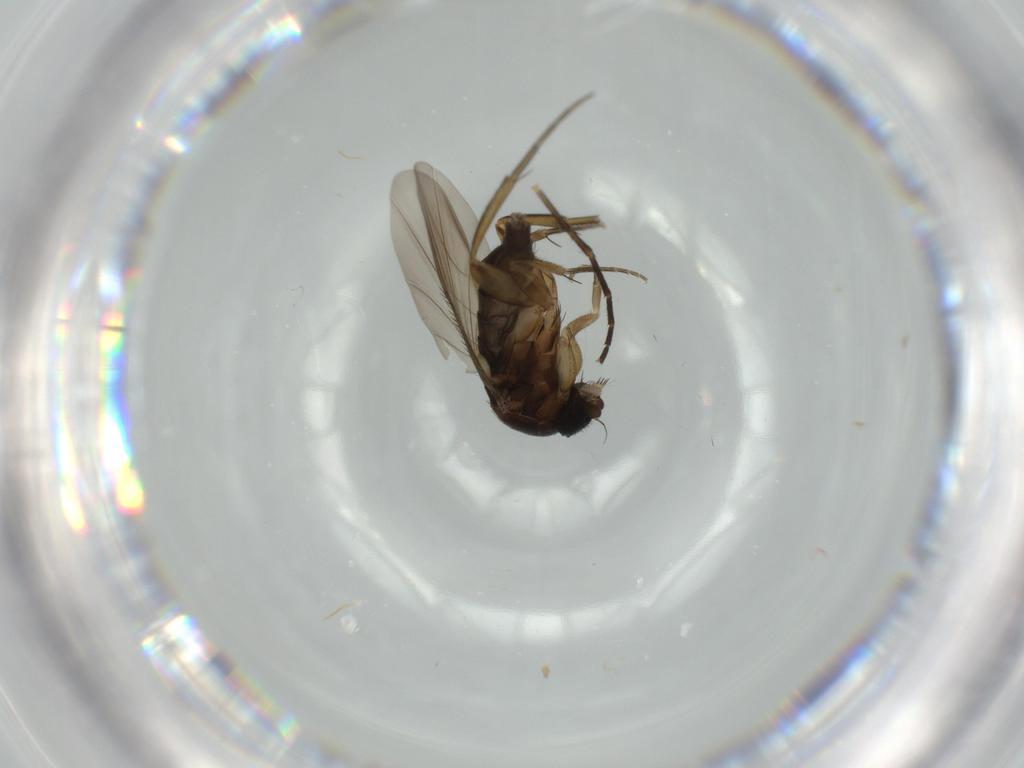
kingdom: Animalia
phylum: Arthropoda
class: Insecta
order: Diptera
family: Phoridae
